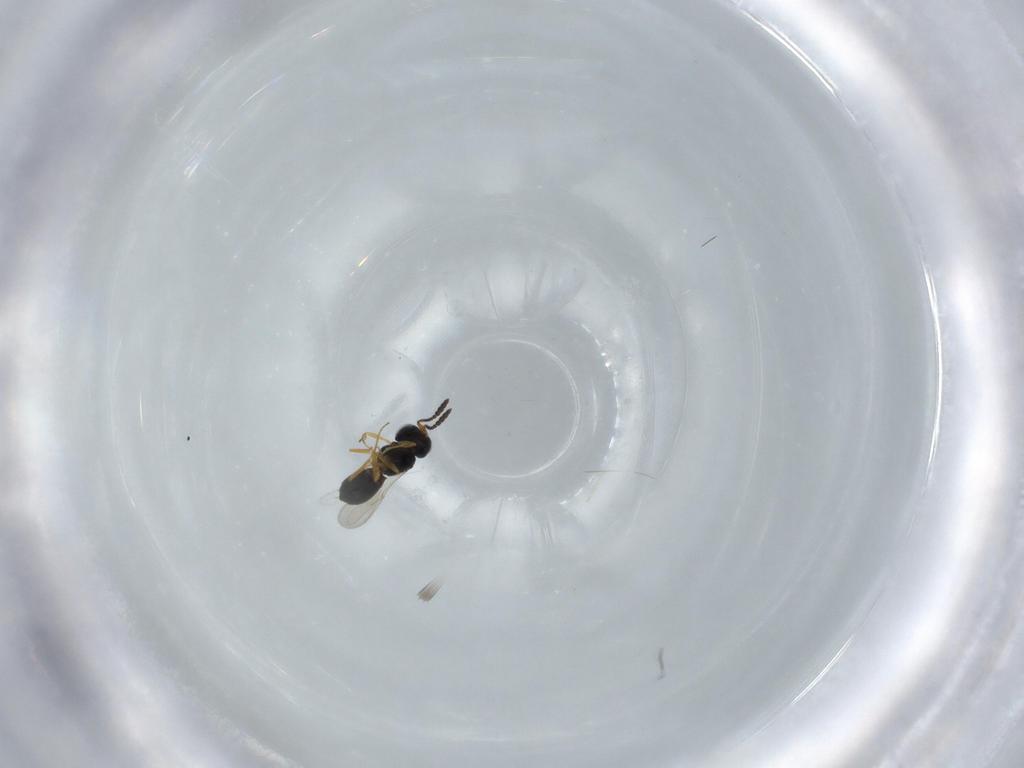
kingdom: Animalia
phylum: Arthropoda
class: Insecta
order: Hymenoptera
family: Scelionidae
